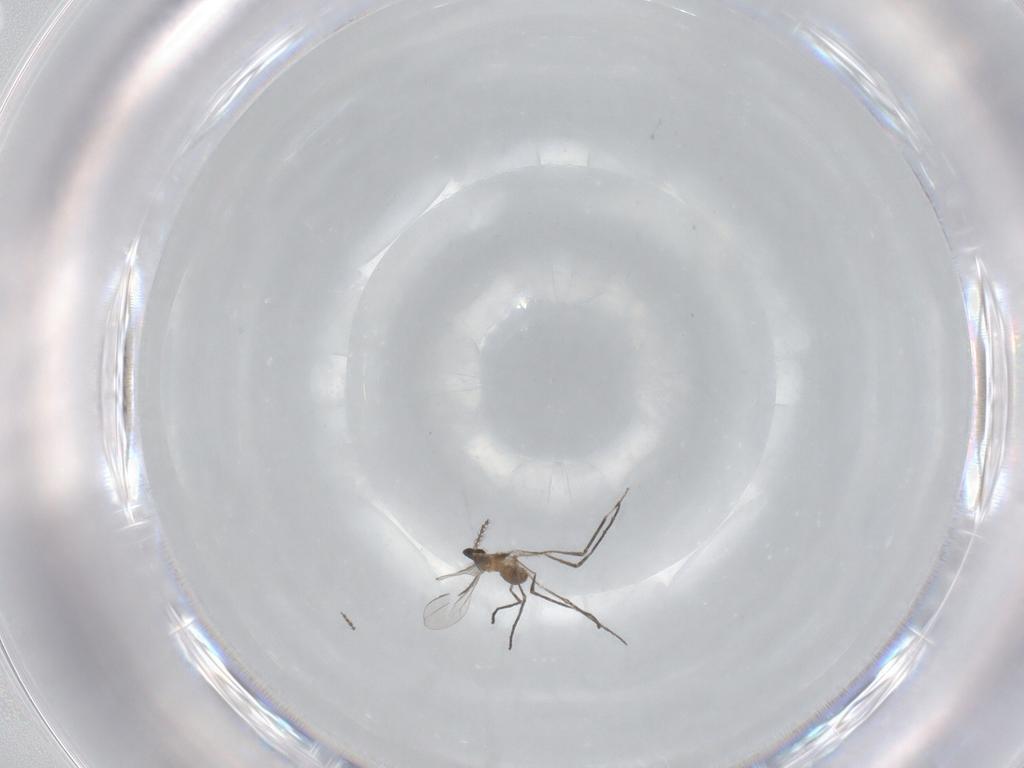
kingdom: Animalia
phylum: Arthropoda
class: Insecta
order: Diptera
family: Cecidomyiidae
